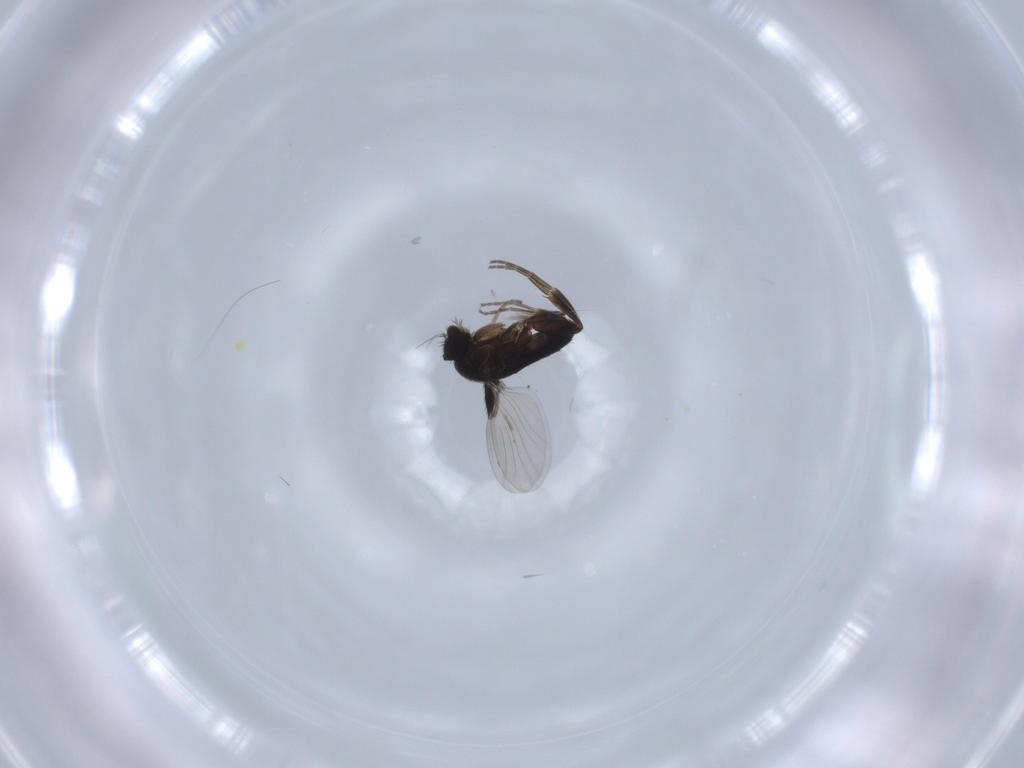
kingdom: Animalia
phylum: Arthropoda
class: Insecta
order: Diptera
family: Phoridae
